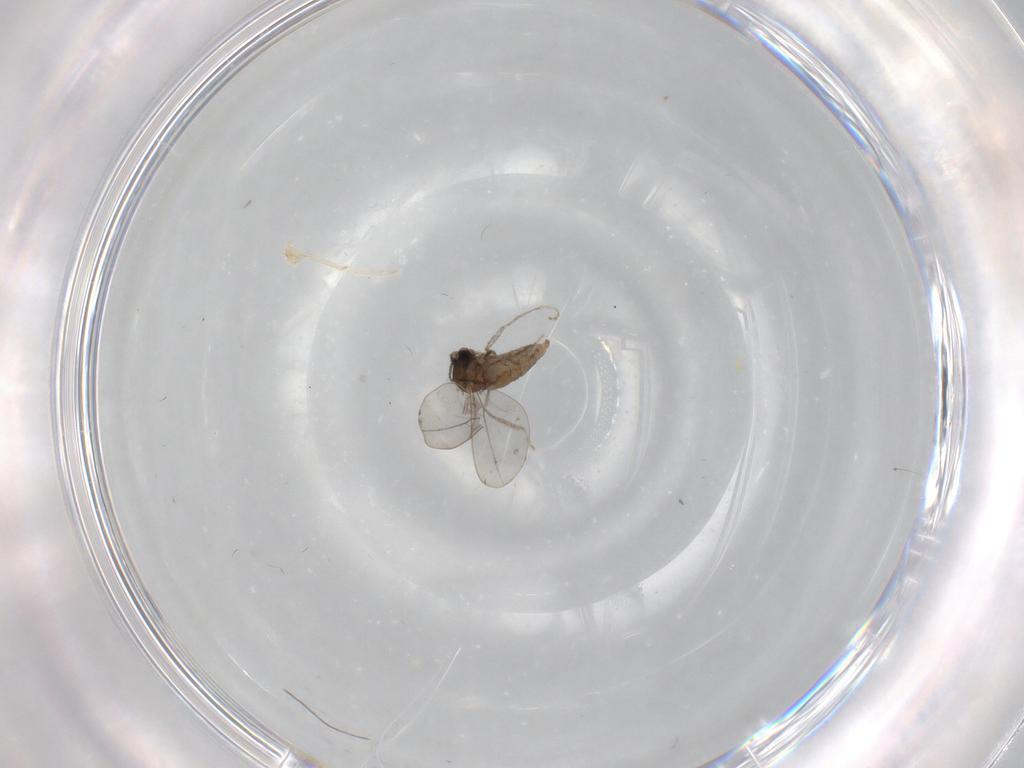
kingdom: Animalia
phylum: Arthropoda
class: Insecta
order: Diptera
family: Cecidomyiidae
